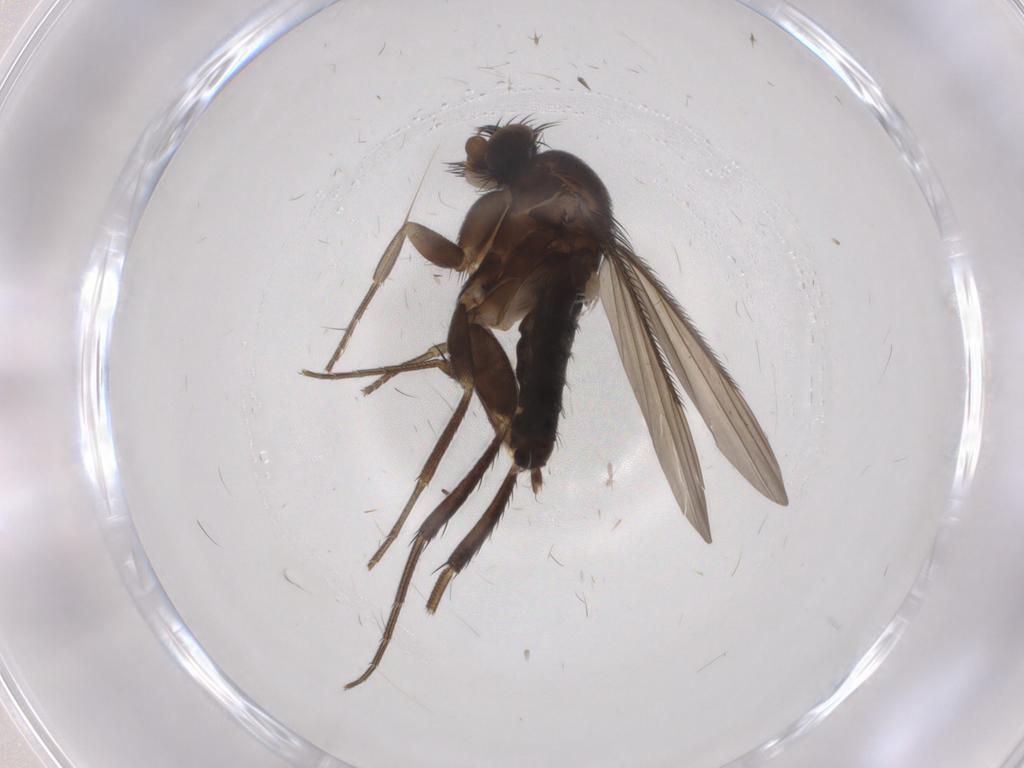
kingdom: Animalia
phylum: Arthropoda
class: Insecta
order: Diptera
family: Phoridae
